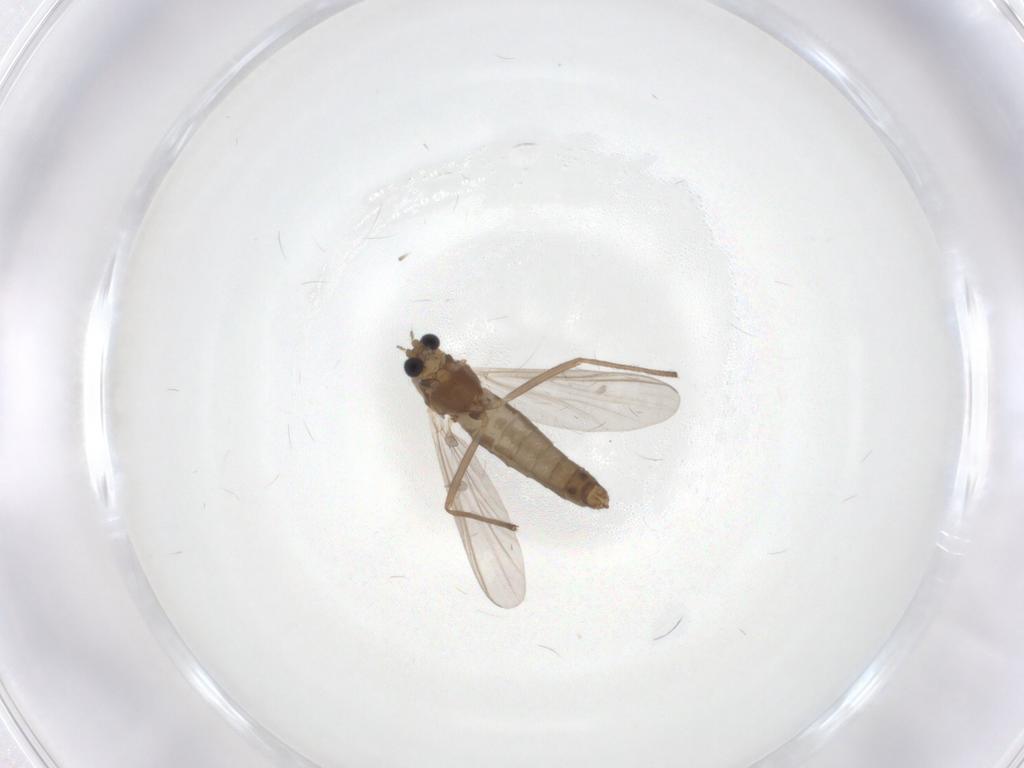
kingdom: Animalia
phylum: Arthropoda
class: Insecta
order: Diptera
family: Chironomidae
